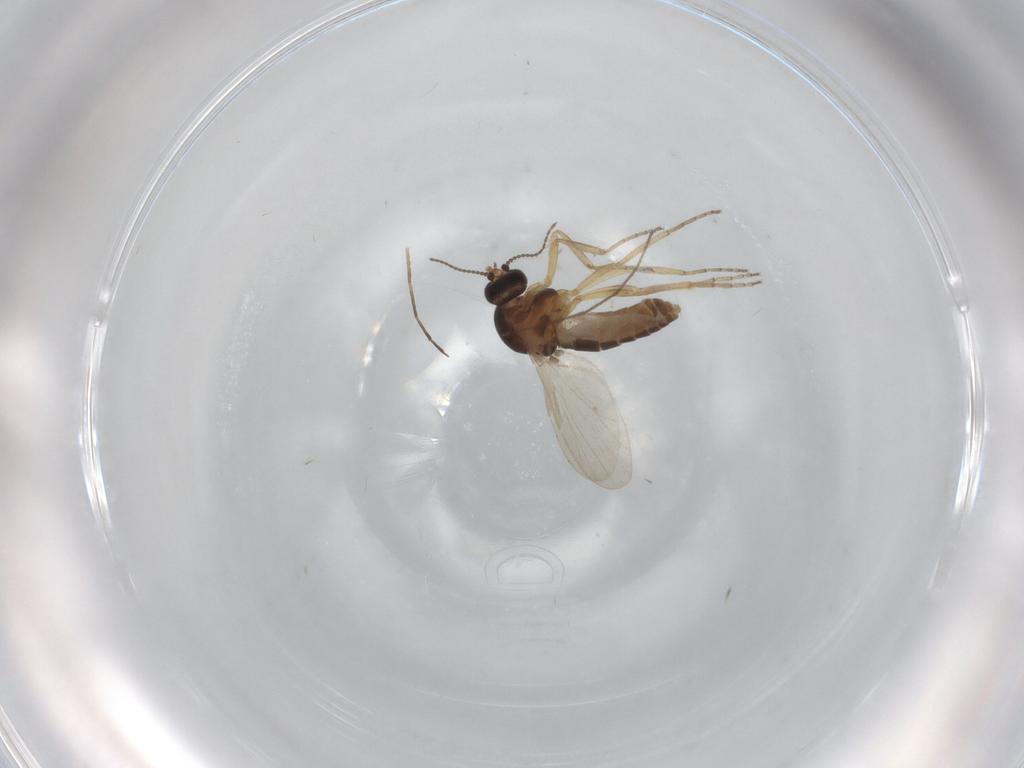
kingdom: Animalia
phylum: Arthropoda
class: Insecta
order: Diptera
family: Ceratopogonidae
